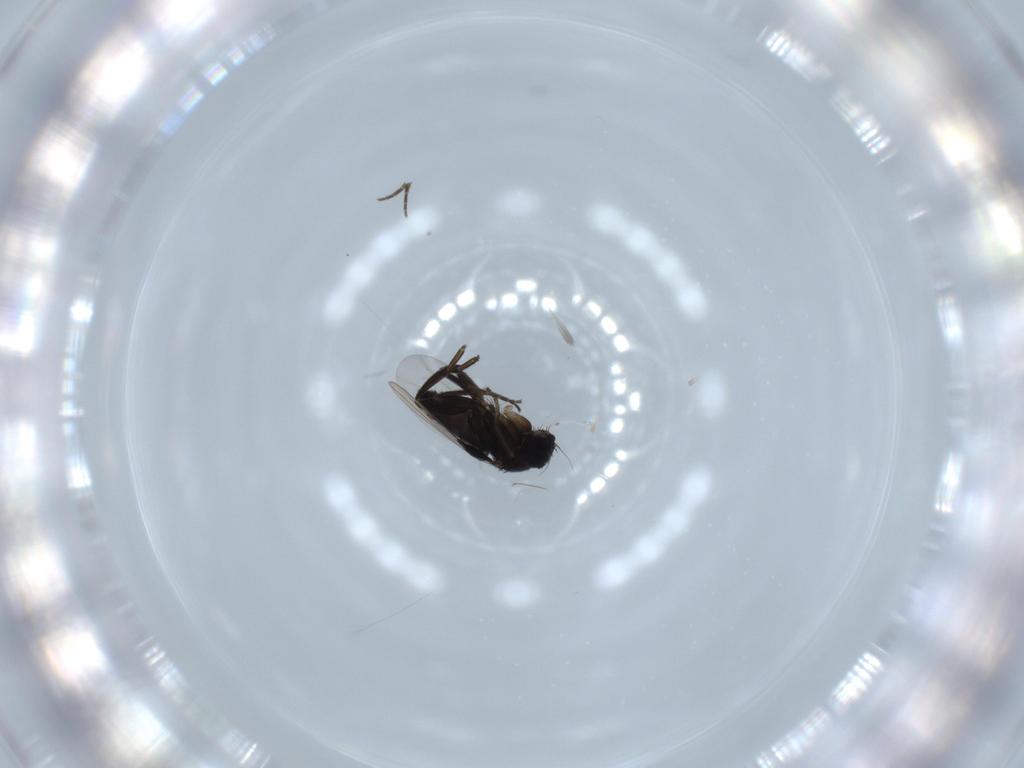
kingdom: Animalia
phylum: Arthropoda
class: Insecta
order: Diptera
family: Phoridae
